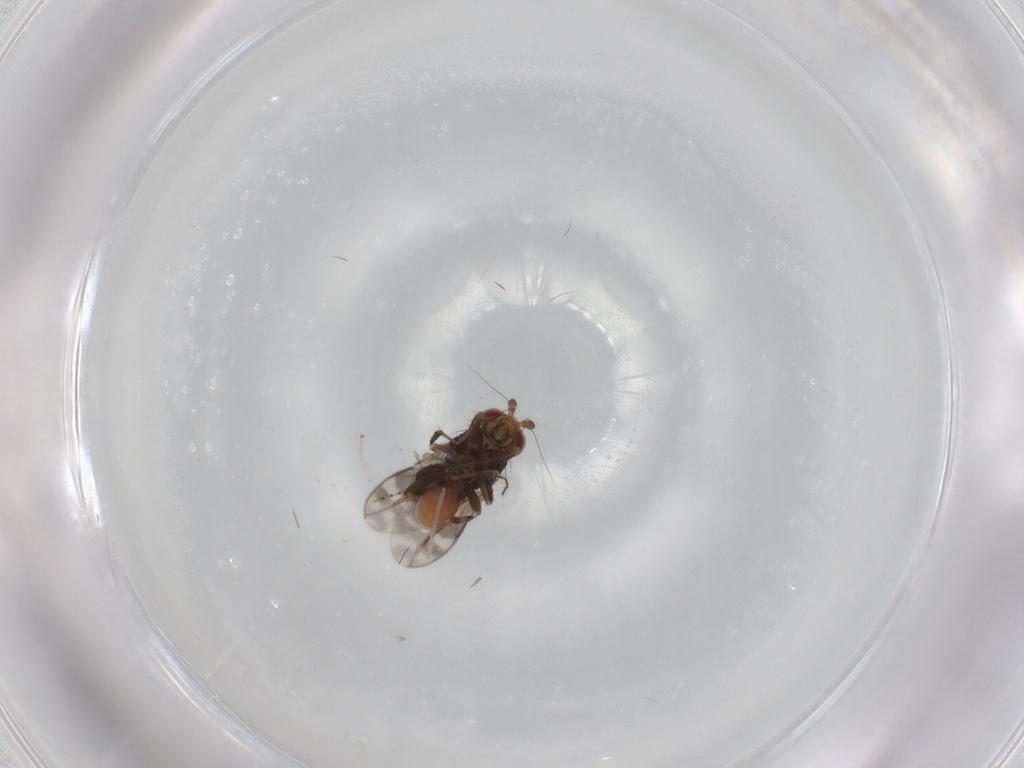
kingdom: Animalia
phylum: Arthropoda
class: Insecta
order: Diptera
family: Sphaeroceridae
